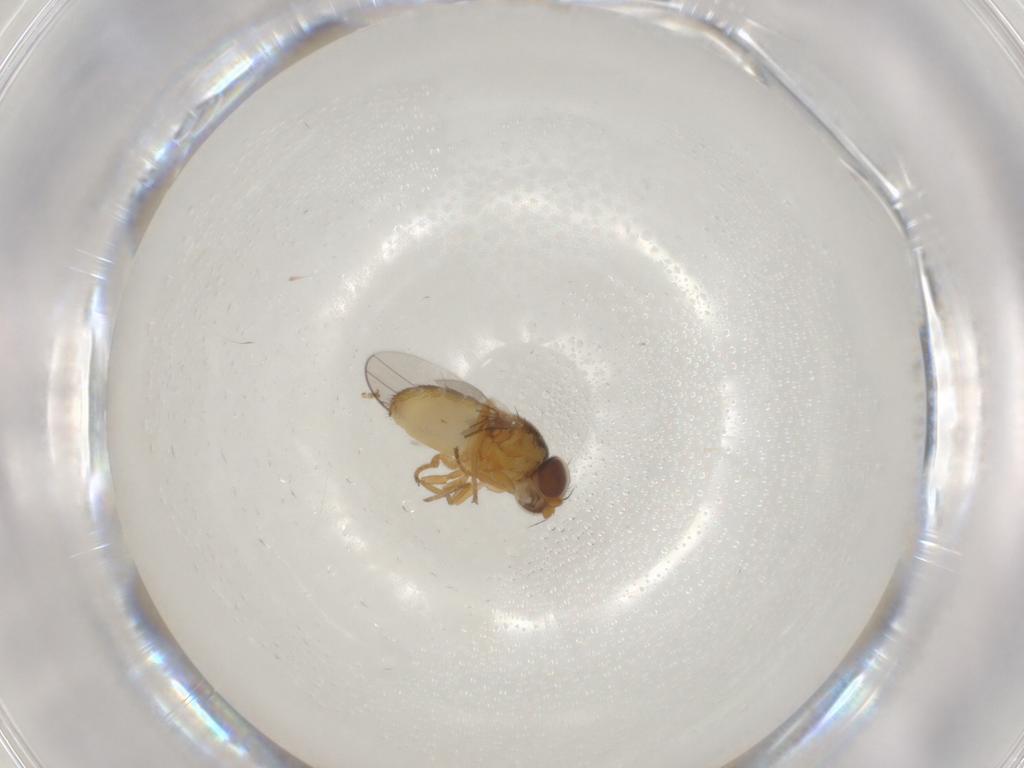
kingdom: Animalia
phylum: Arthropoda
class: Insecta
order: Diptera
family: Chloropidae
